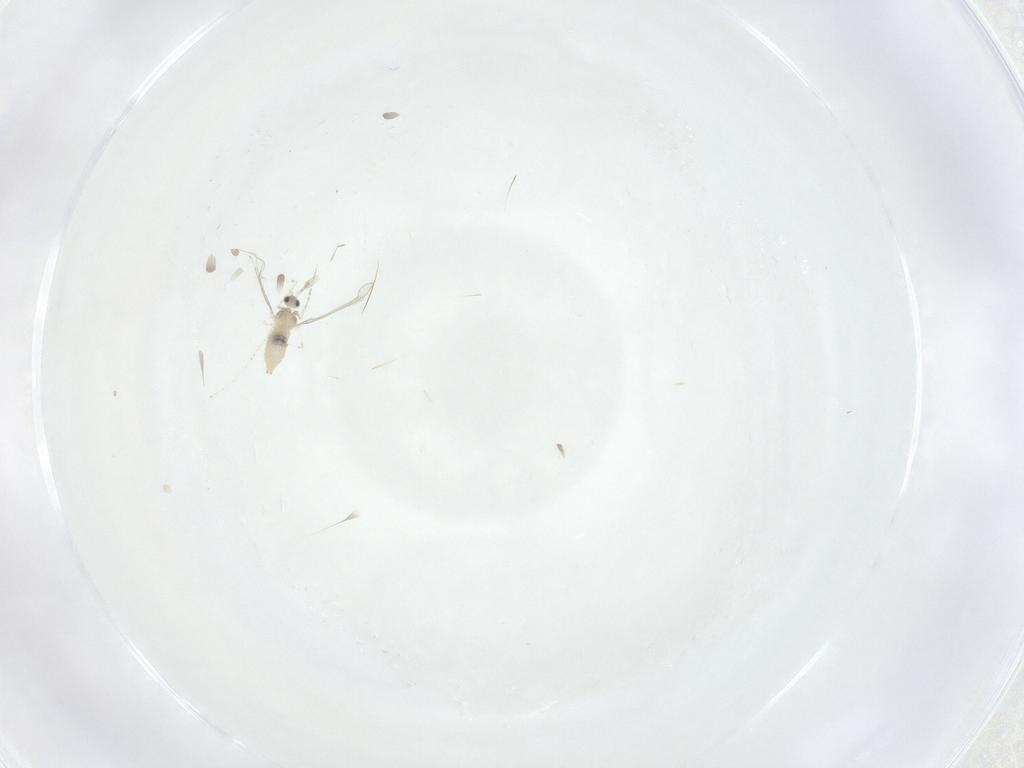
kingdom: Animalia
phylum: Arthropoda
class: Insecta
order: Diptera
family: Cecidomyiidae
